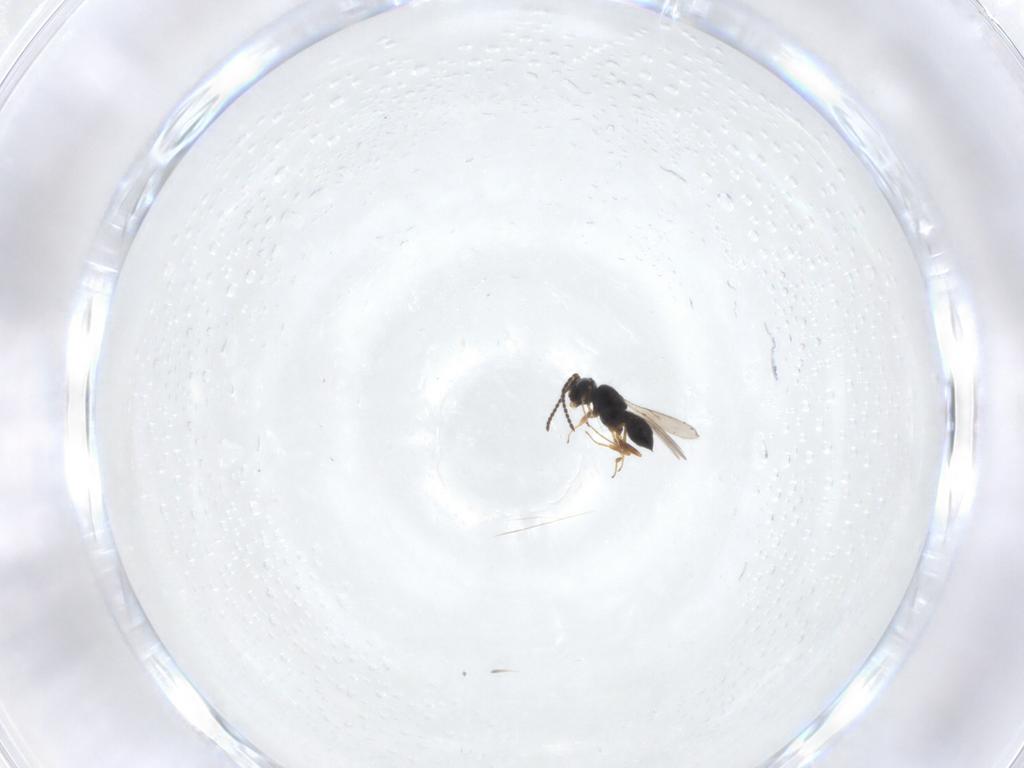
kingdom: Animalia
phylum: Arthropoda
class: Insecta
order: Hymenoptera
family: Scelionidae
